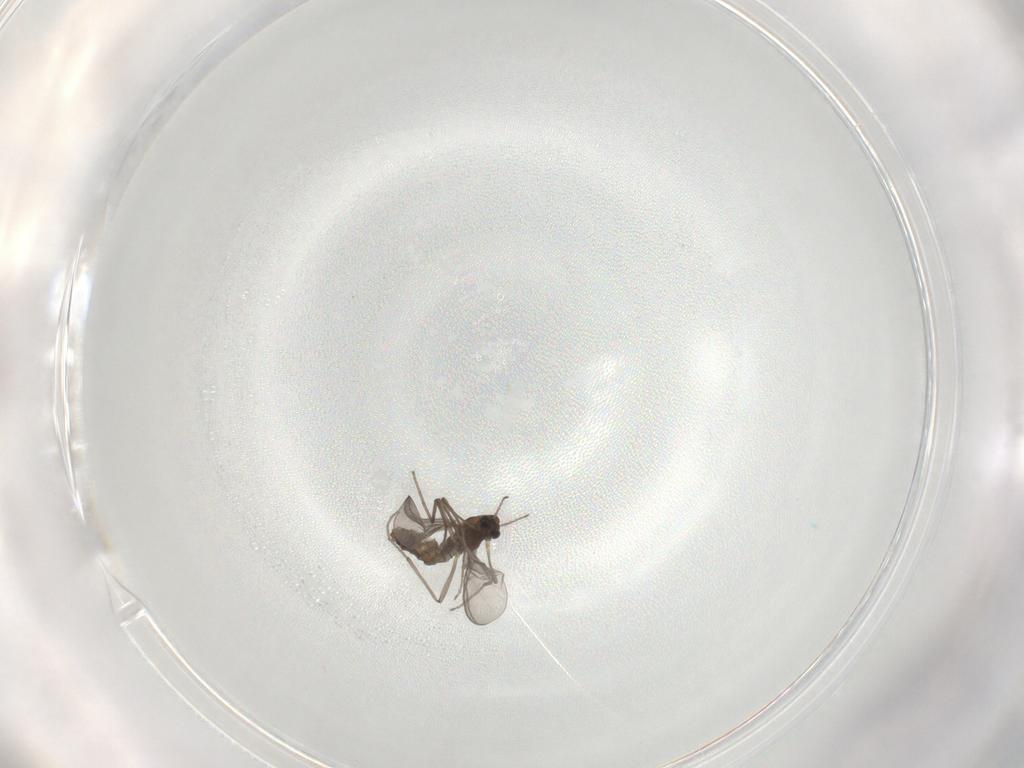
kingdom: Animalia
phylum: Arthropoda
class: Insecta
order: Diptera
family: Chironomidae
